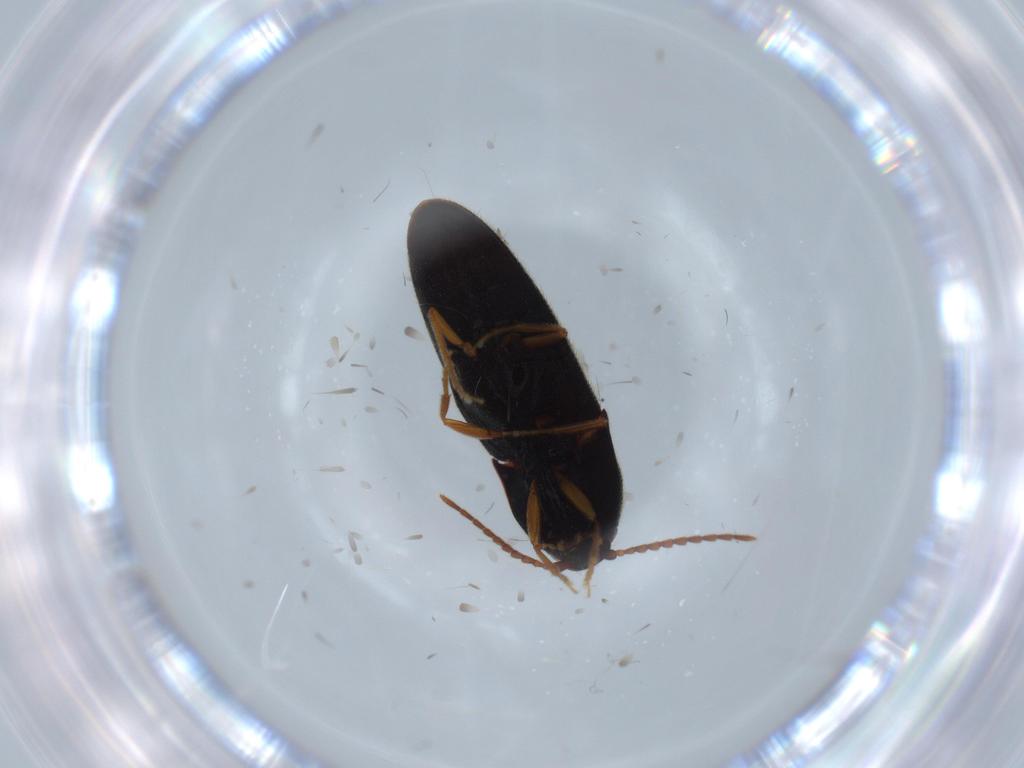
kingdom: Animalia
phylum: Arthropoda
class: Insecta
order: Coleoptera
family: Elateridae
